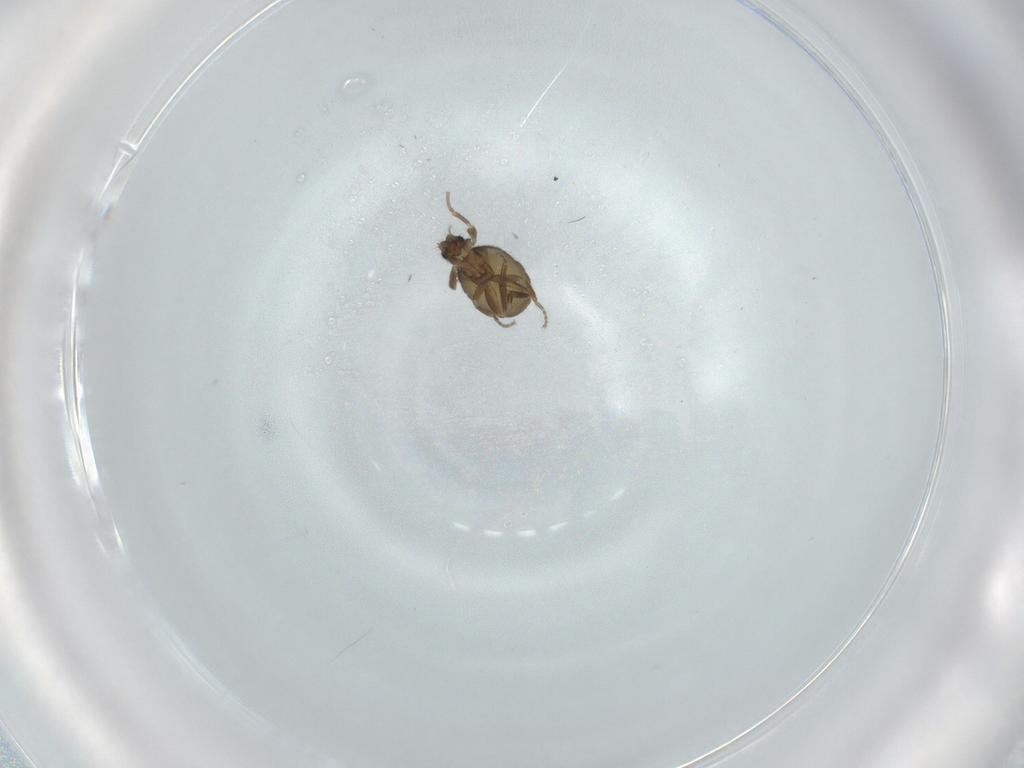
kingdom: Animalia
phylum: Arthropoda
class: Insecta
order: Diptera
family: Phoridae
